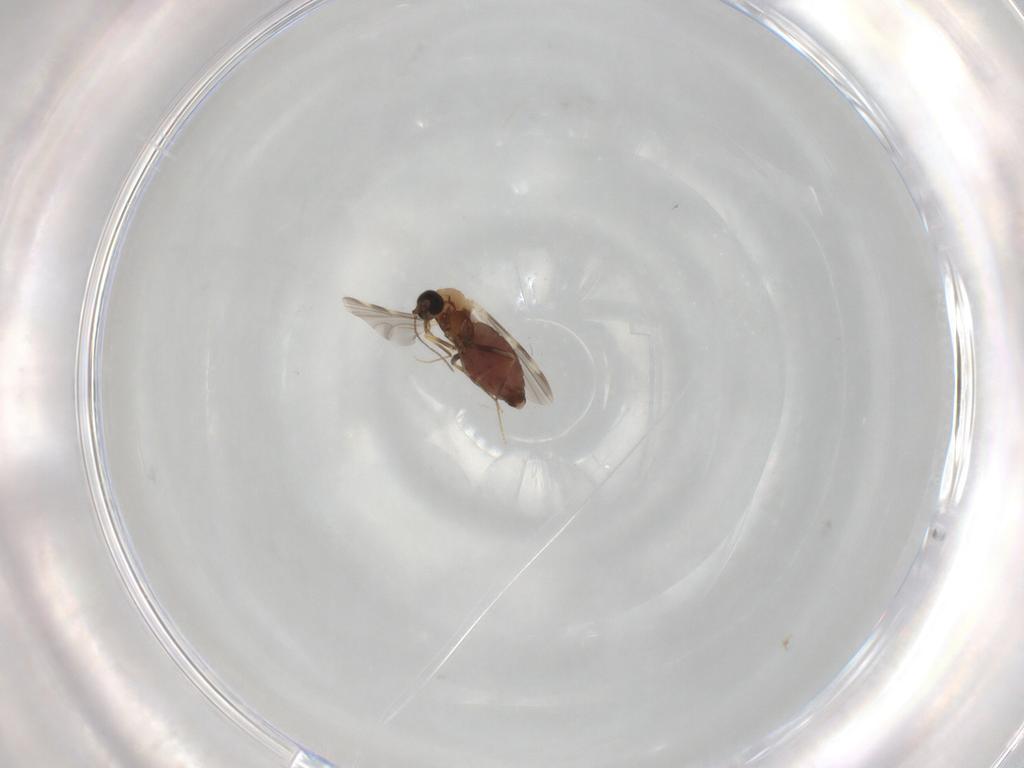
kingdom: Animalia
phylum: Arthropoda
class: Insecta
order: Diptera
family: Ceratopogonidae
